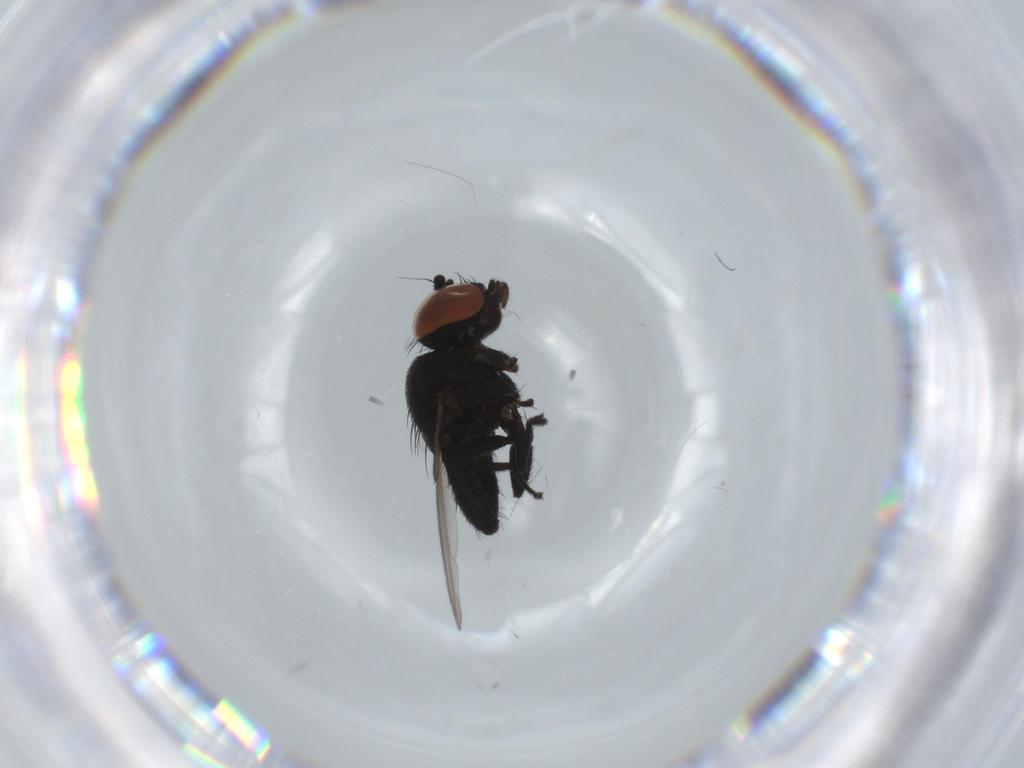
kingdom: Animalia
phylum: Arthropoda
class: Insecta
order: Diptera
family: Milichiidae
